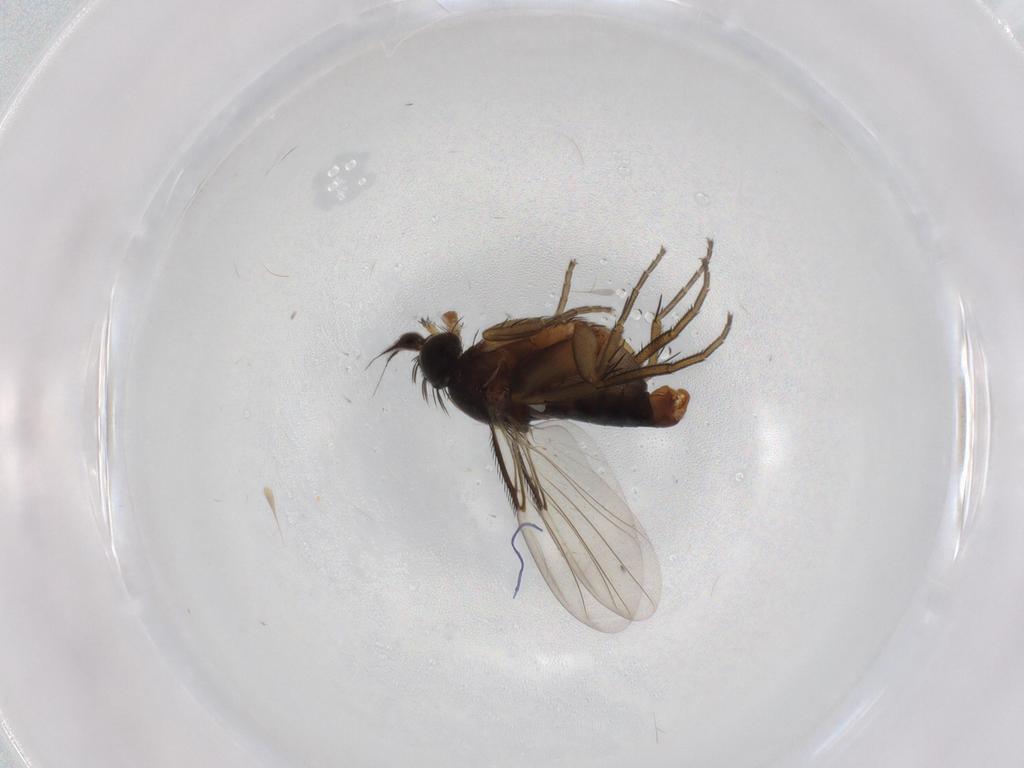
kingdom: Animalia
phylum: Arthropoda
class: Insecta
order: Diptera
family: Phoridae
